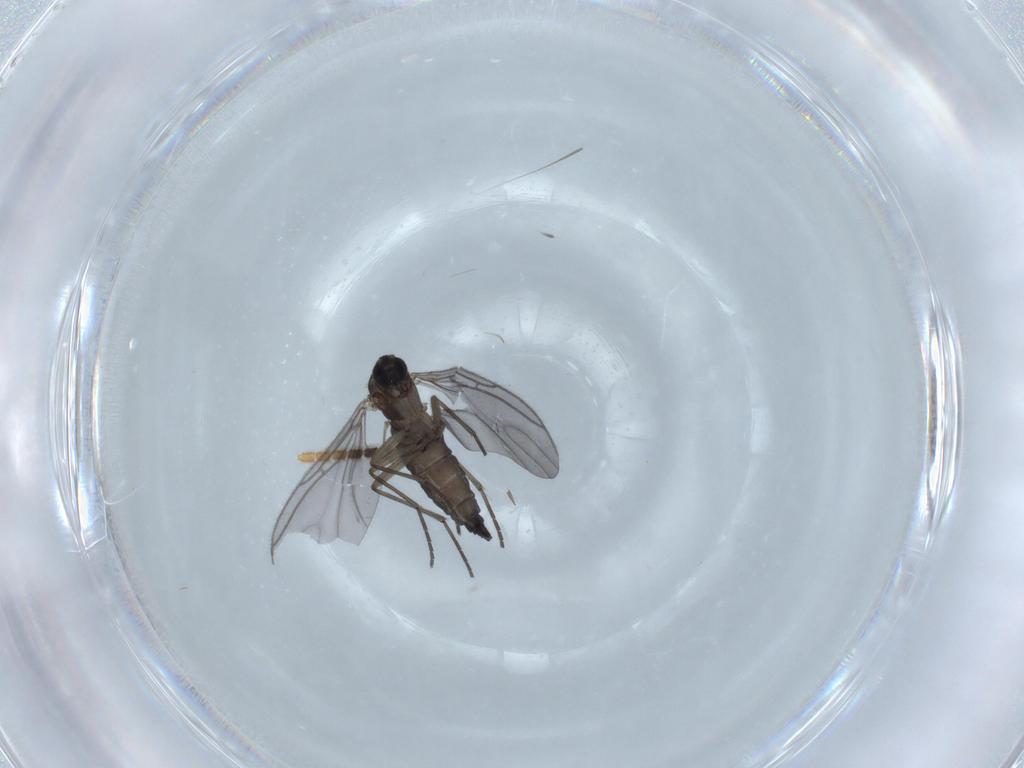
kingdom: Animalia
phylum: Arthropoda
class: Insecta
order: Diptera
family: Sciaridae
